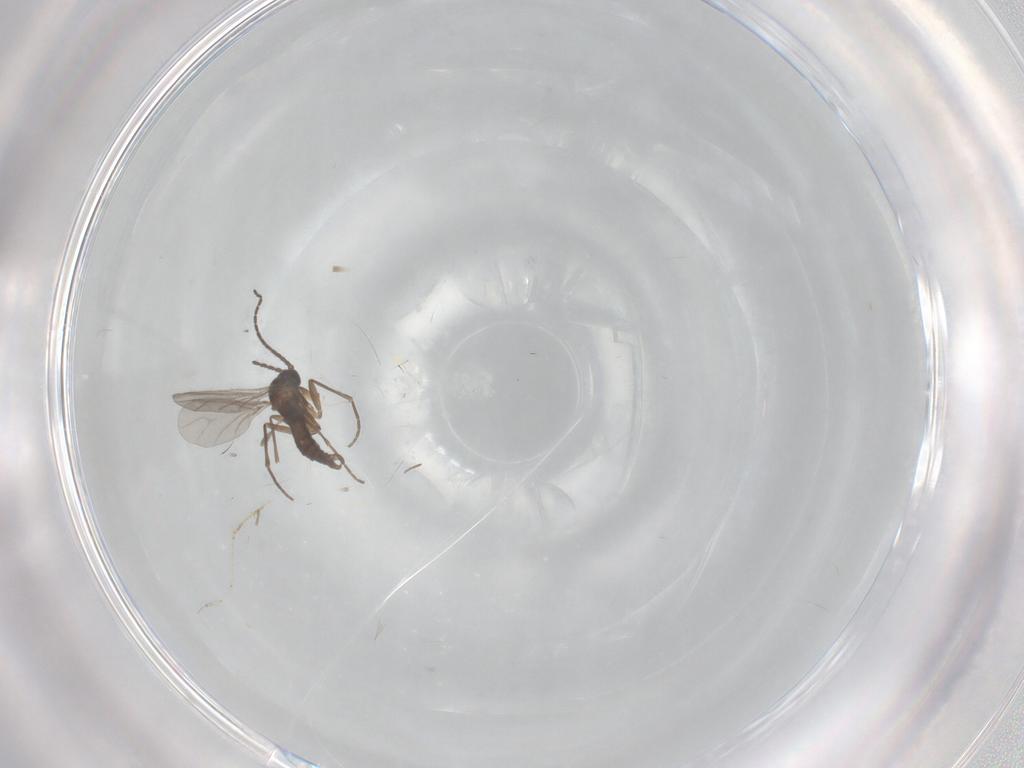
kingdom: Animalia
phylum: Arthropoda
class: Insecta
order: Diptera
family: Sciaridae
